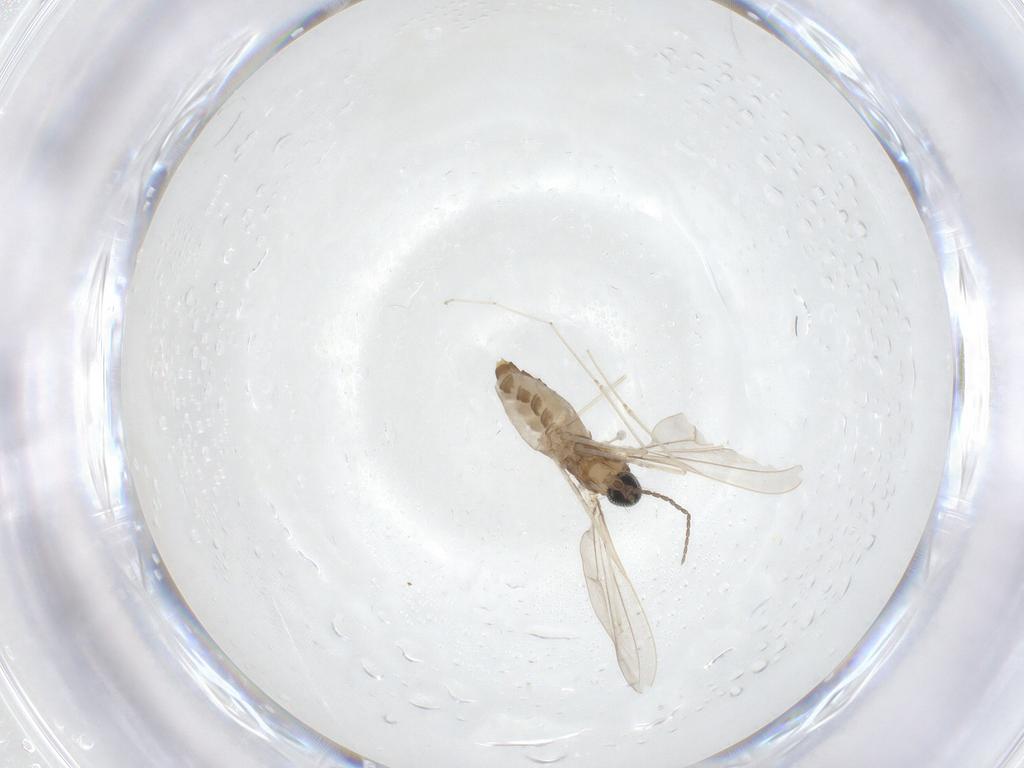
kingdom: Animalia
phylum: Arthropoda
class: Insecta
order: Diptera
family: Cecidomyiidae
